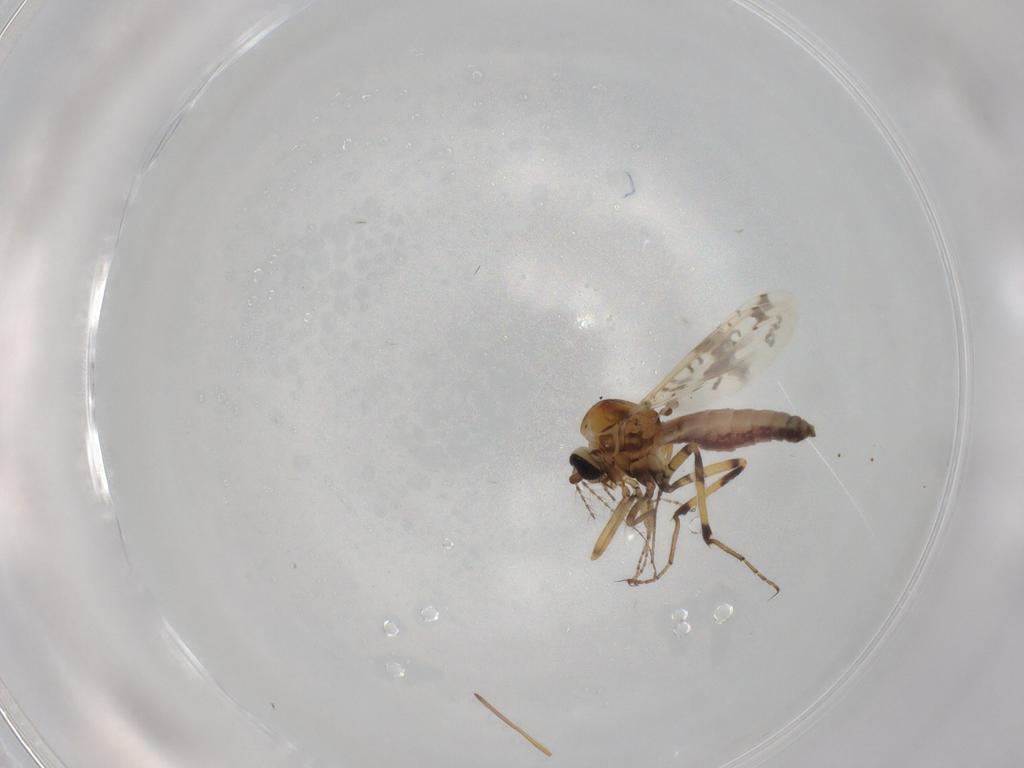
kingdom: Animalia
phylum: Arthropoda
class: Insecta
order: Diptera
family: Ceratopogonidae
